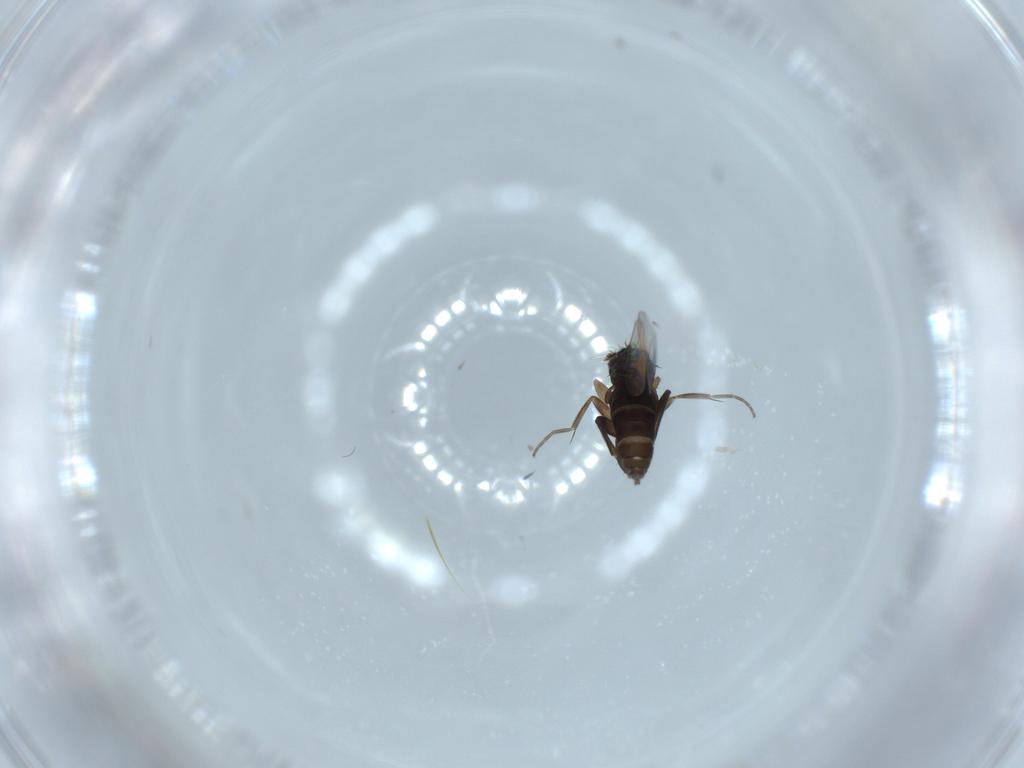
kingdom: Animalia
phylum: Arthropoda
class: Insecta
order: Diptera
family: Phoridae
